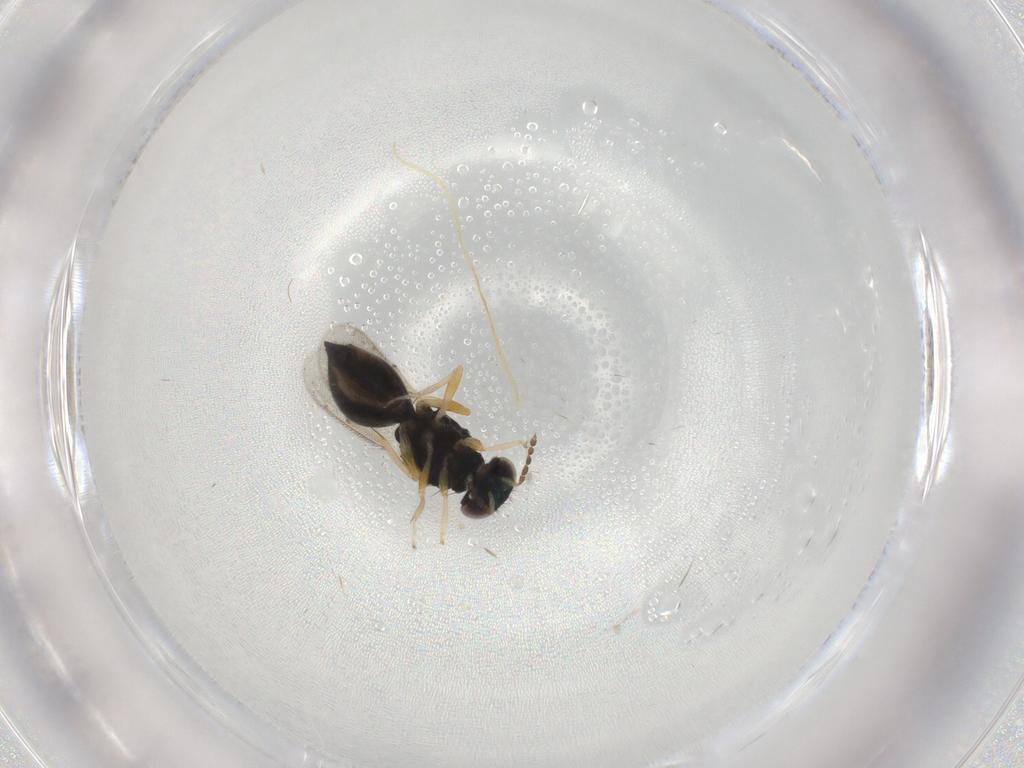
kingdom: Animalia
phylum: Arthropoda
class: Insecta
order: Hymenoptera
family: Eulophidae
